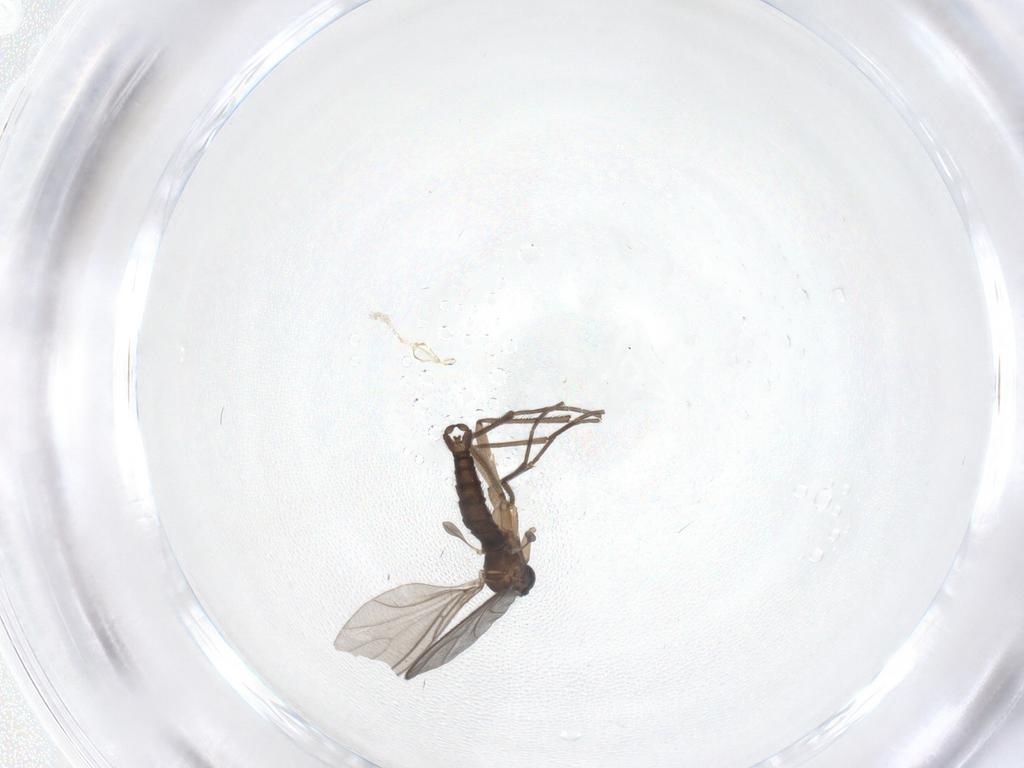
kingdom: Animalia
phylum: Arthropoda
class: Insecta
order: Diptera
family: Sciaridae
